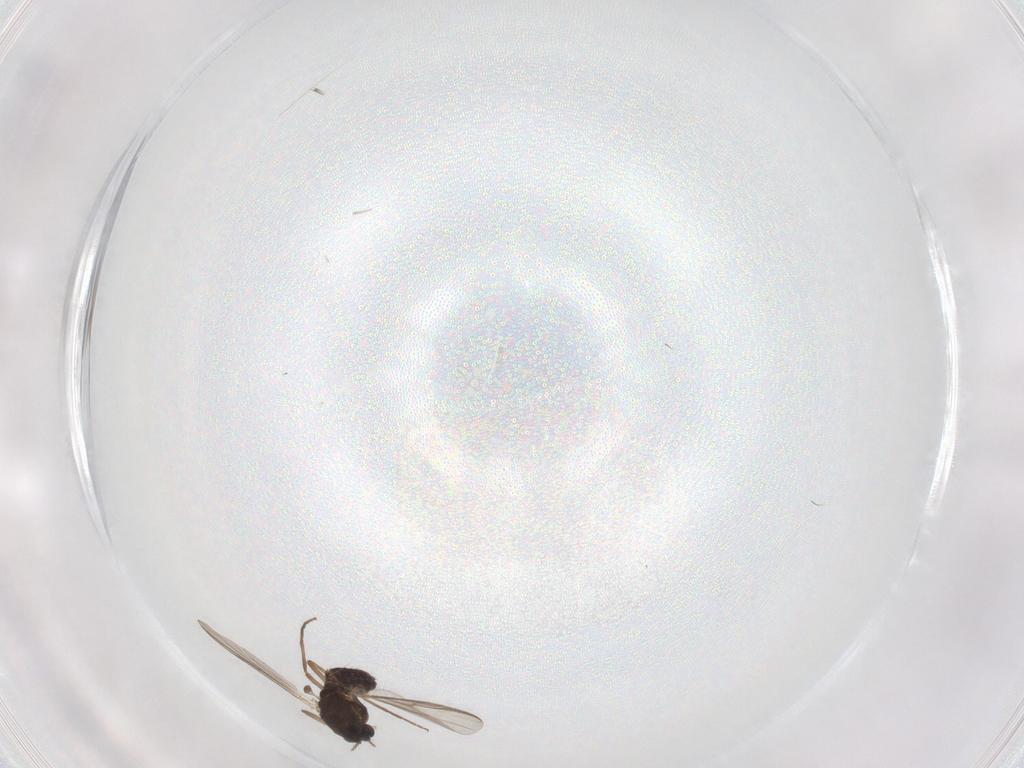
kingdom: Animalia
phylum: Arthropoda
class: Insecta
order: Diptera
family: Chironomidae
